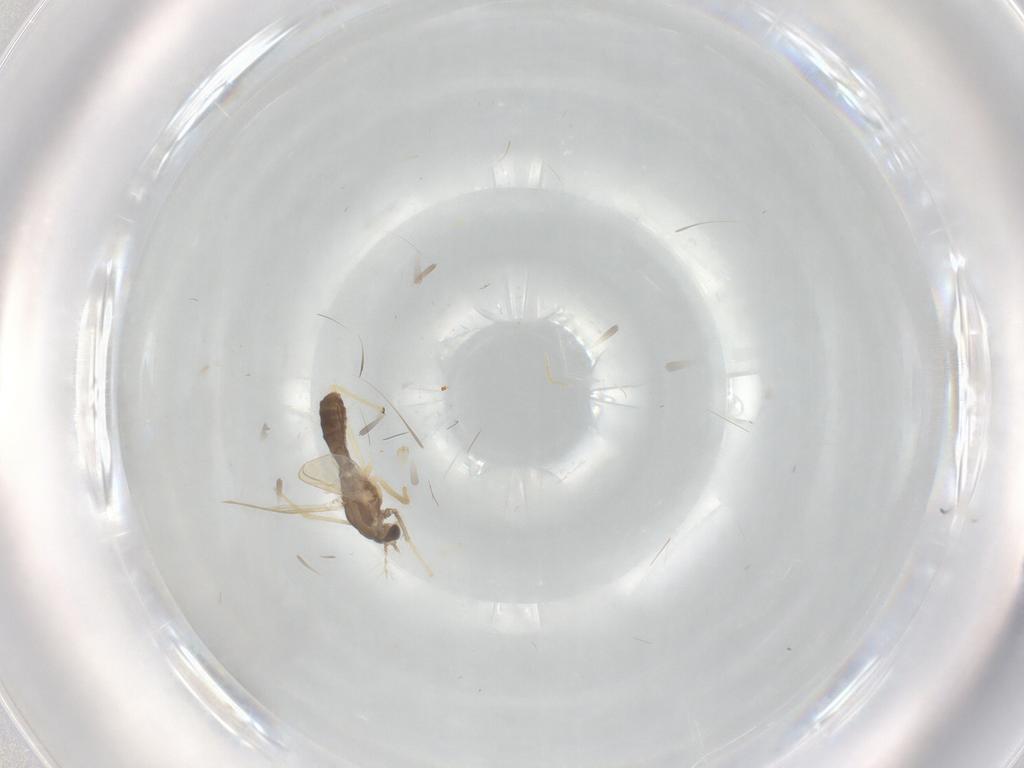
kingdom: Animalia
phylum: Arthropoda
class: Insecta
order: Diptera
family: Chironomidae
